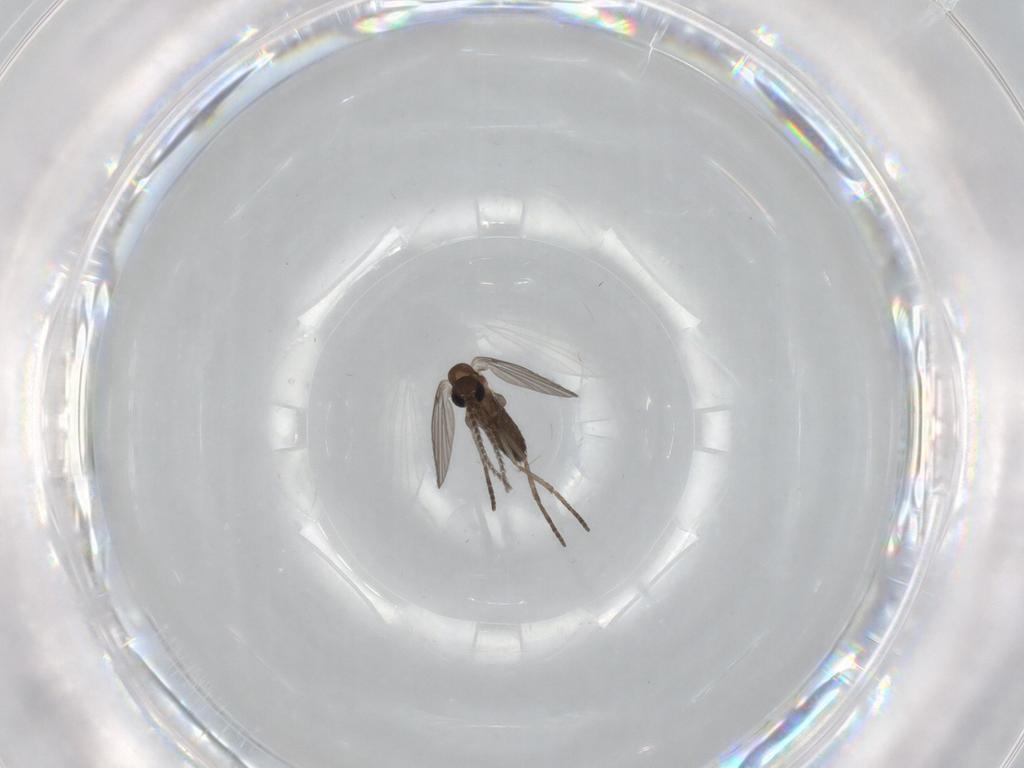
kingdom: Animalia
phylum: Arthropoda
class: Insecta
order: Diptera
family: Psychodidae
